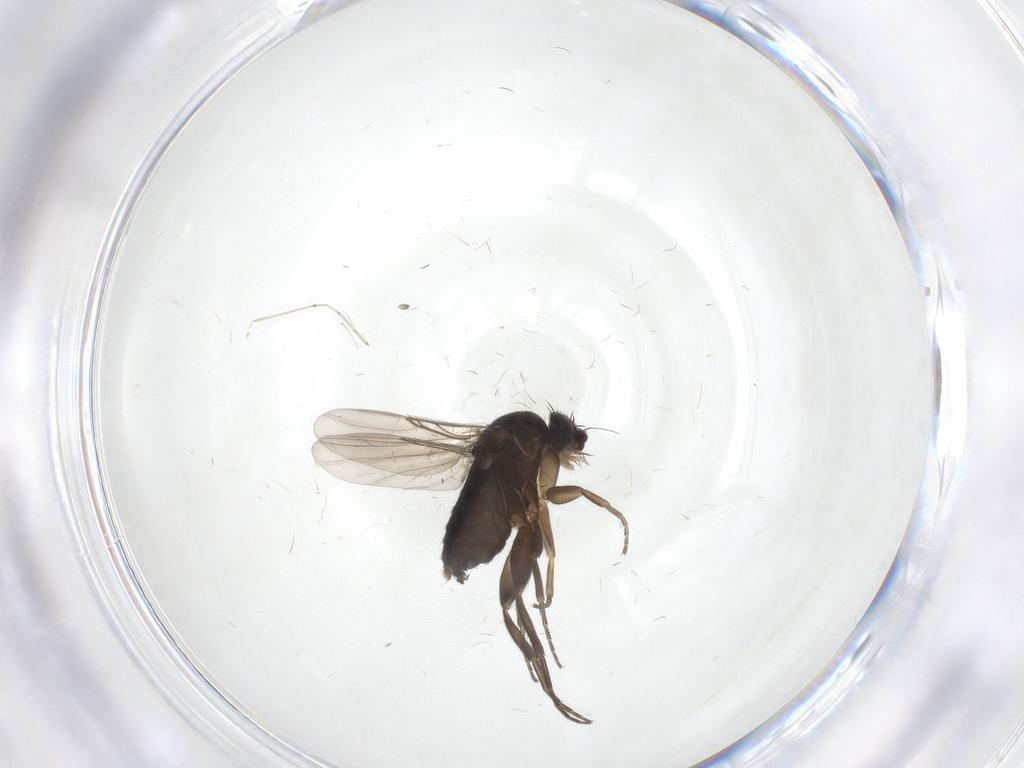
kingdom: Animalia
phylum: Arthropoda
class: Insecta
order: Diptera
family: Phoridae
